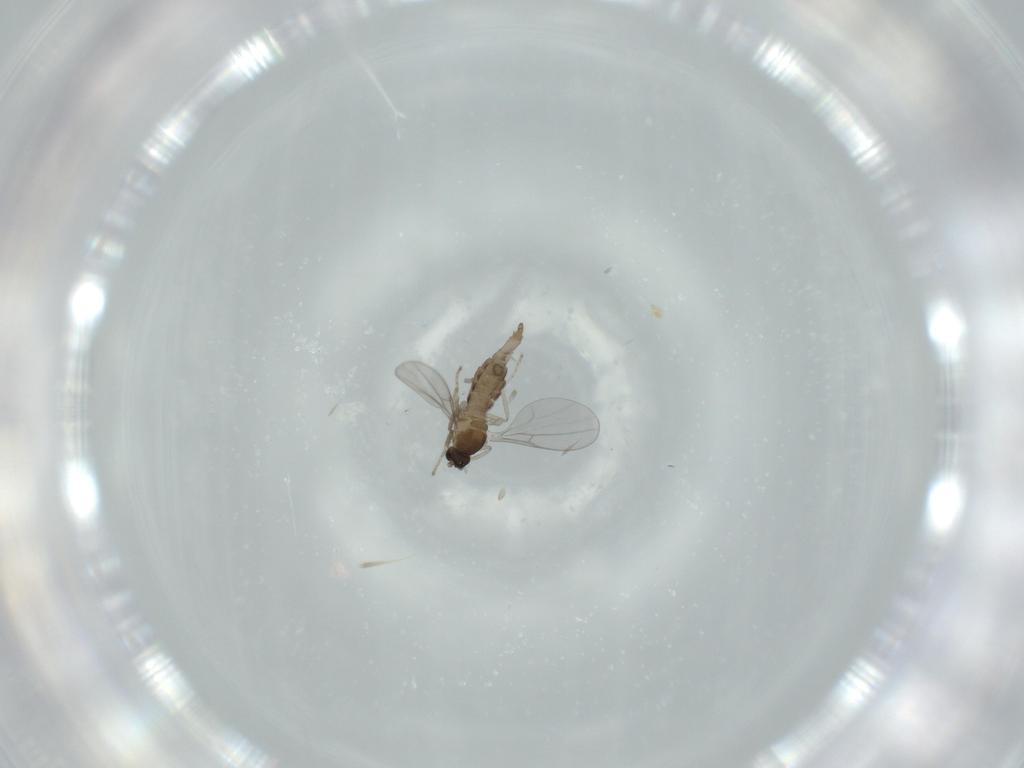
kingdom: Animalia
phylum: Arthropoda
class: Insecta
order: Diptera
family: Cecidomyiidae
